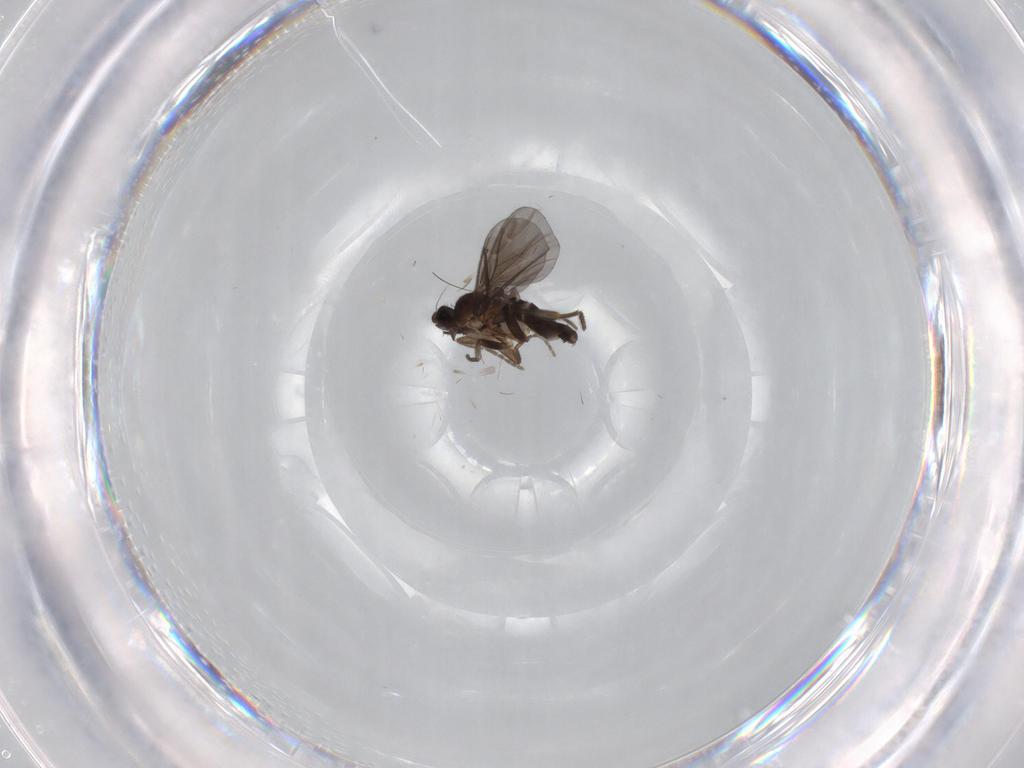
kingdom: Animalia
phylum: Arthropoda
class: Insecta
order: Diptera
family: Phoridae
